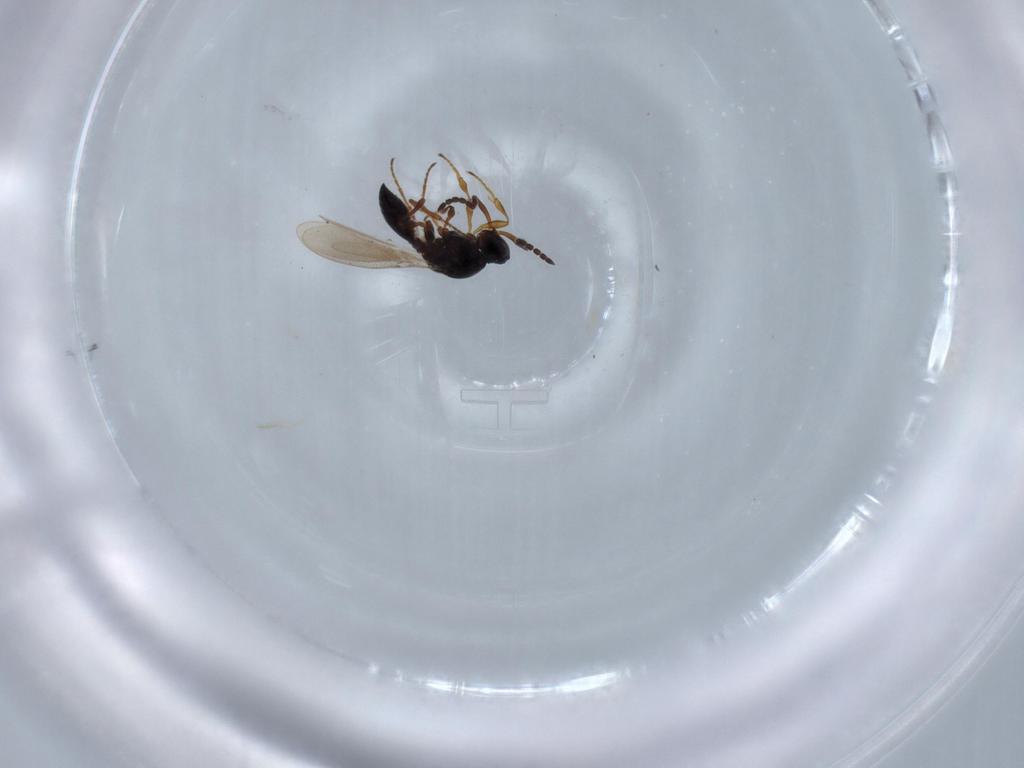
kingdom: Animalia
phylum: Arthropoda
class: Insecta
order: Hymenoptera
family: Platygastridae
